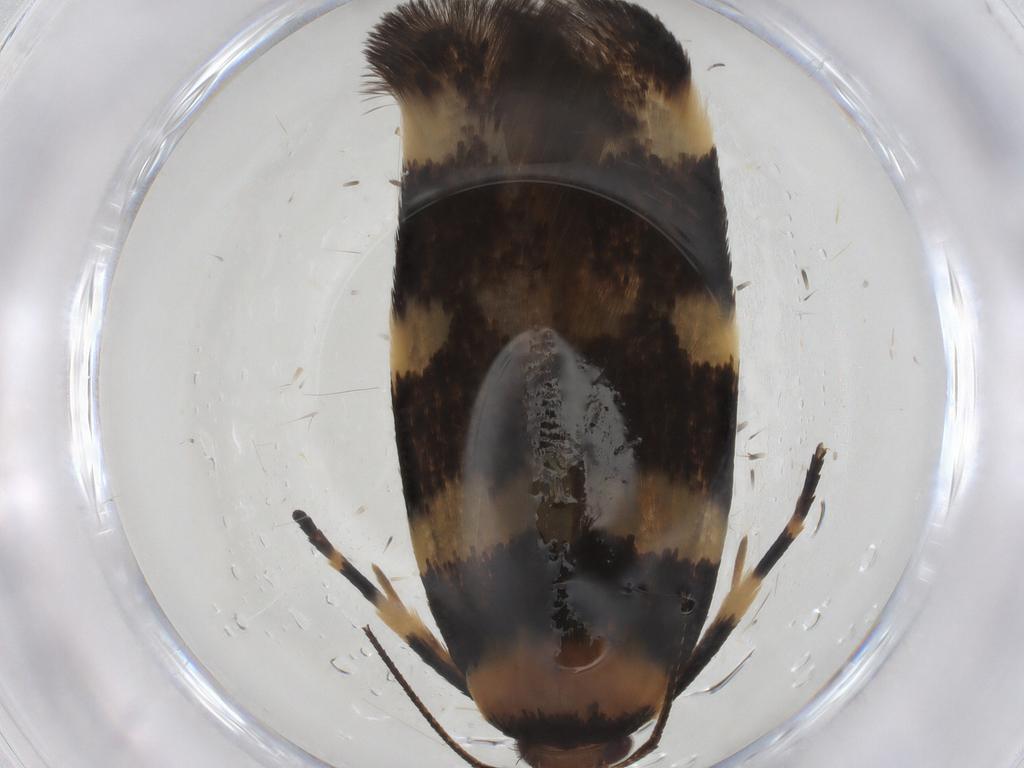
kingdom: Animalia
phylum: Arthropoda
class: Insecta
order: Lepidoptera
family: Cosmopterigidae
